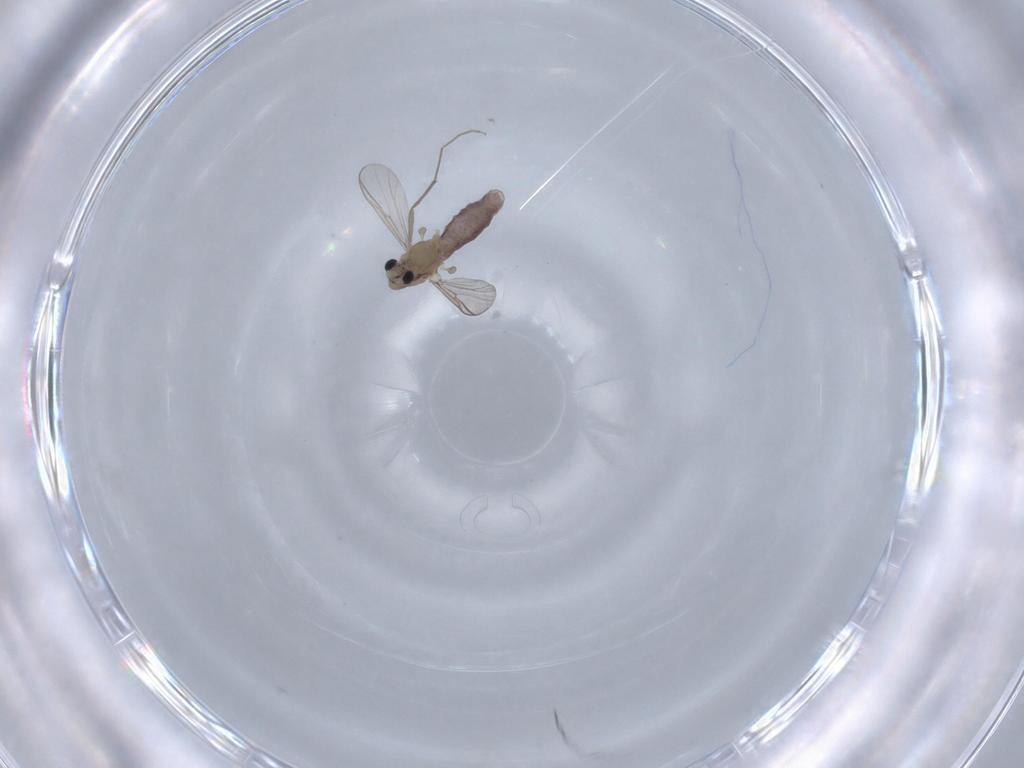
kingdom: Animalia
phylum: Arthropoda
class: Insecta
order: Diptera
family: Chironomidae
